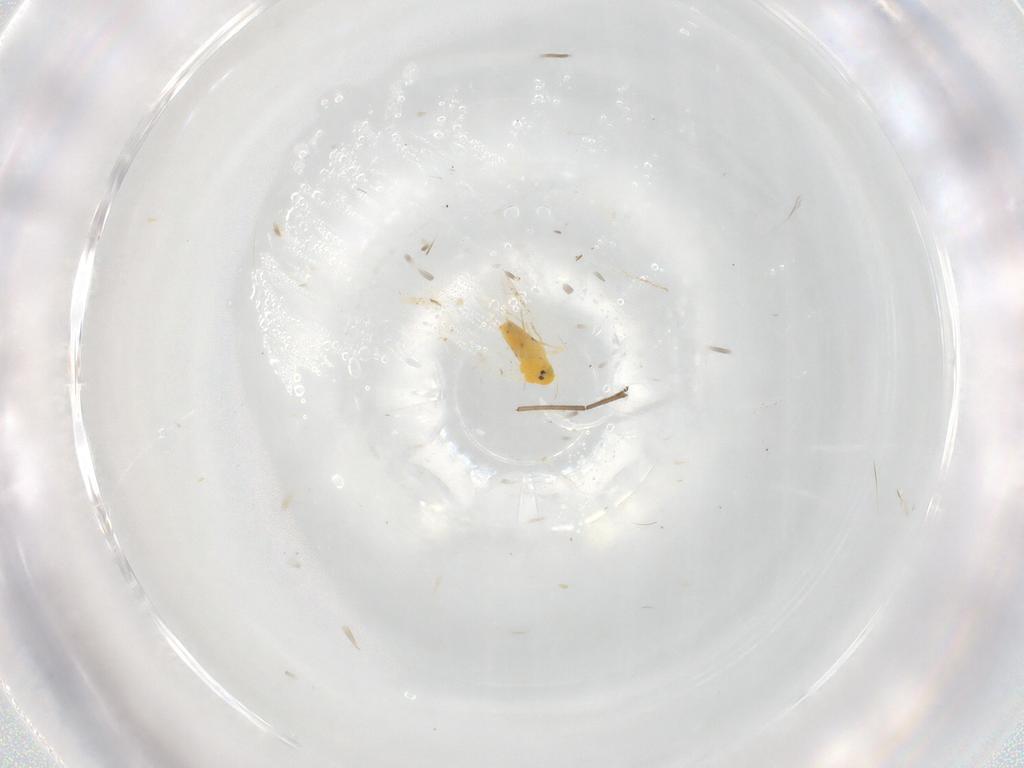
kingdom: Animalia
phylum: Arthropoda
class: Insecta
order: Hemiptera
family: Aleyrodidae
